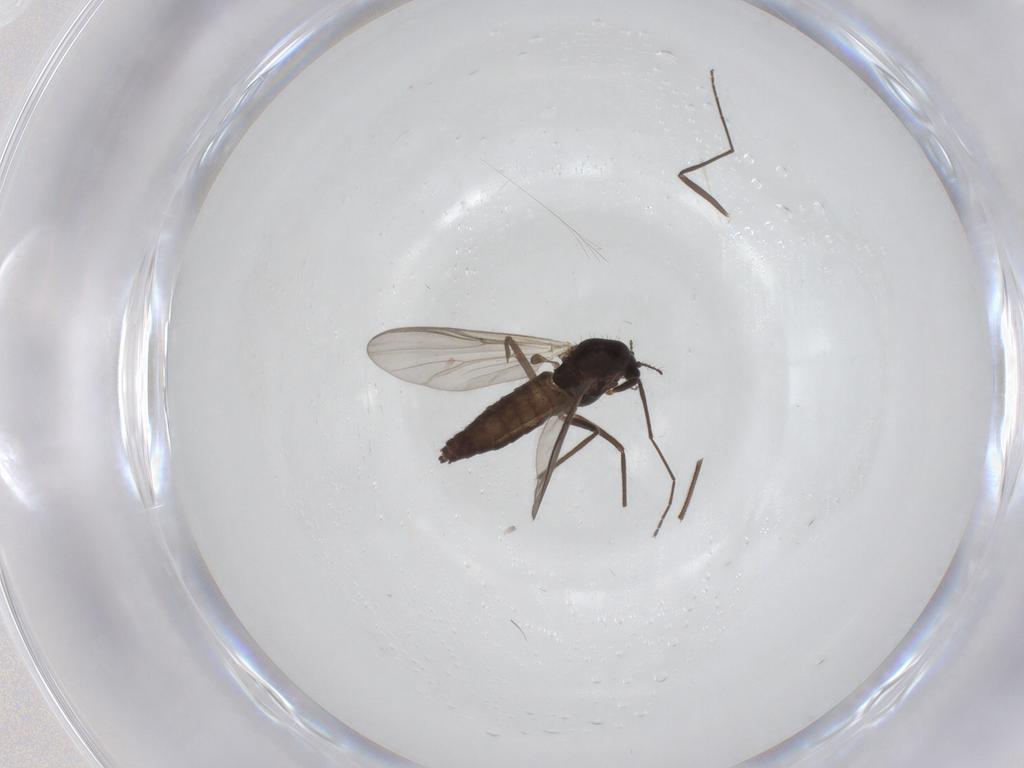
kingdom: Animalia
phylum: Arthropoda
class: Insecta
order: Diptera
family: Chironomidae
